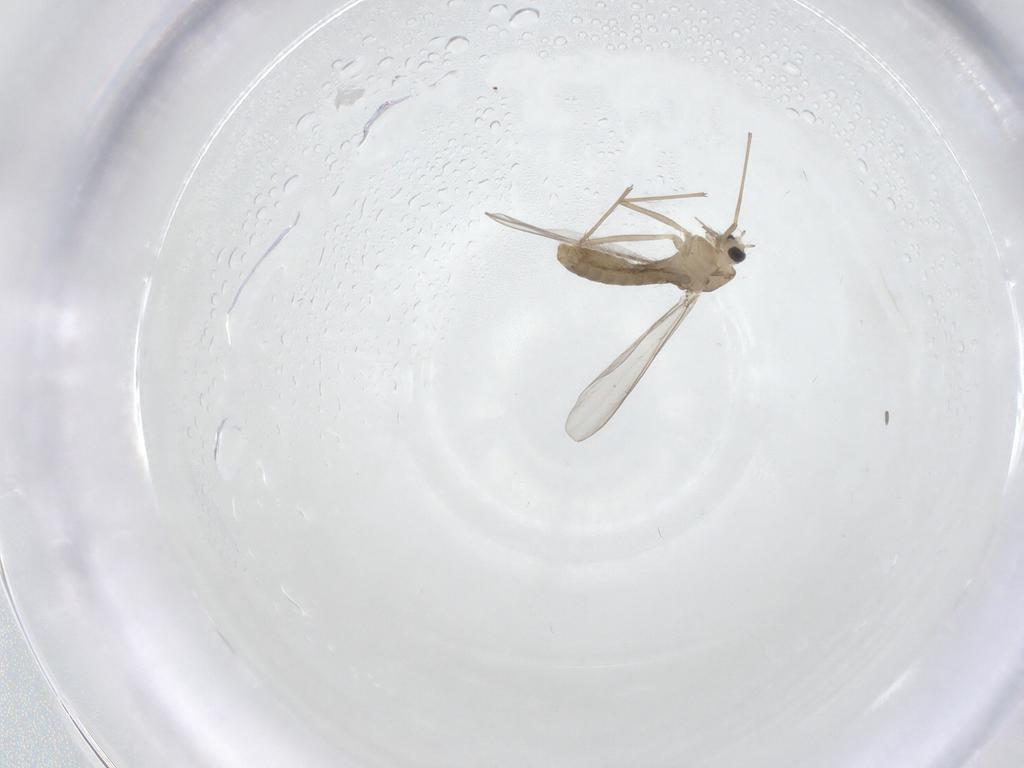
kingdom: Animalia
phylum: Arthropoda
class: Insecta
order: Diptera
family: Chironomidae
